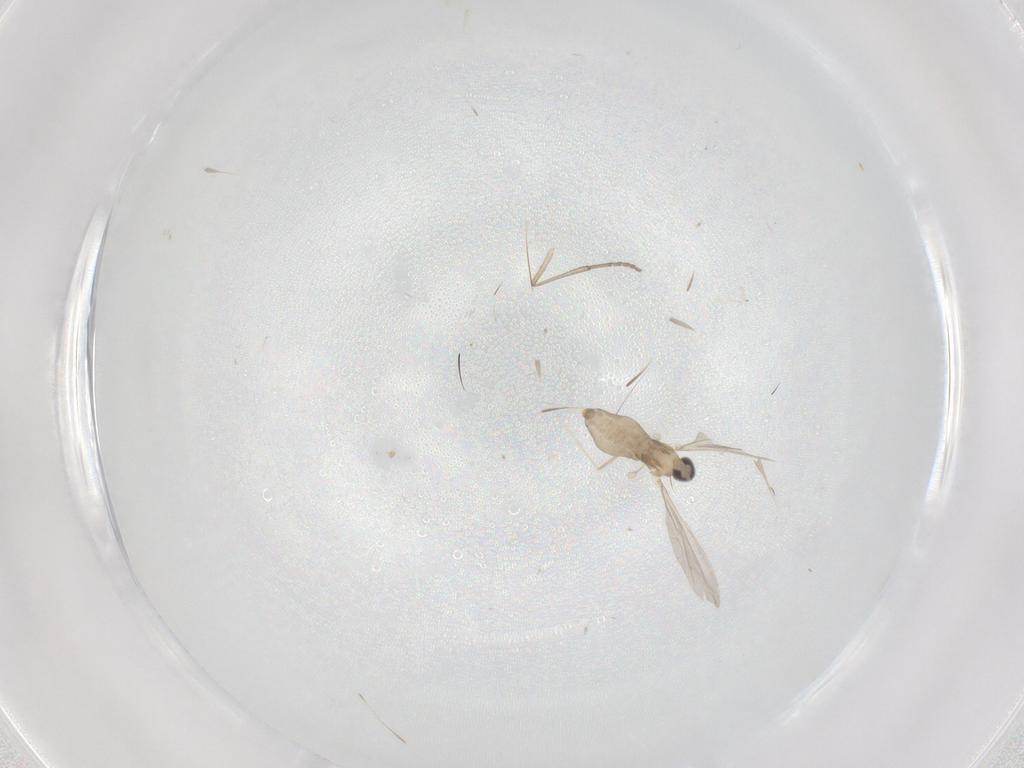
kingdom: Animalia
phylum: Arthropoda
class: Insecta
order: Diptera
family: Cecidomyiidae
